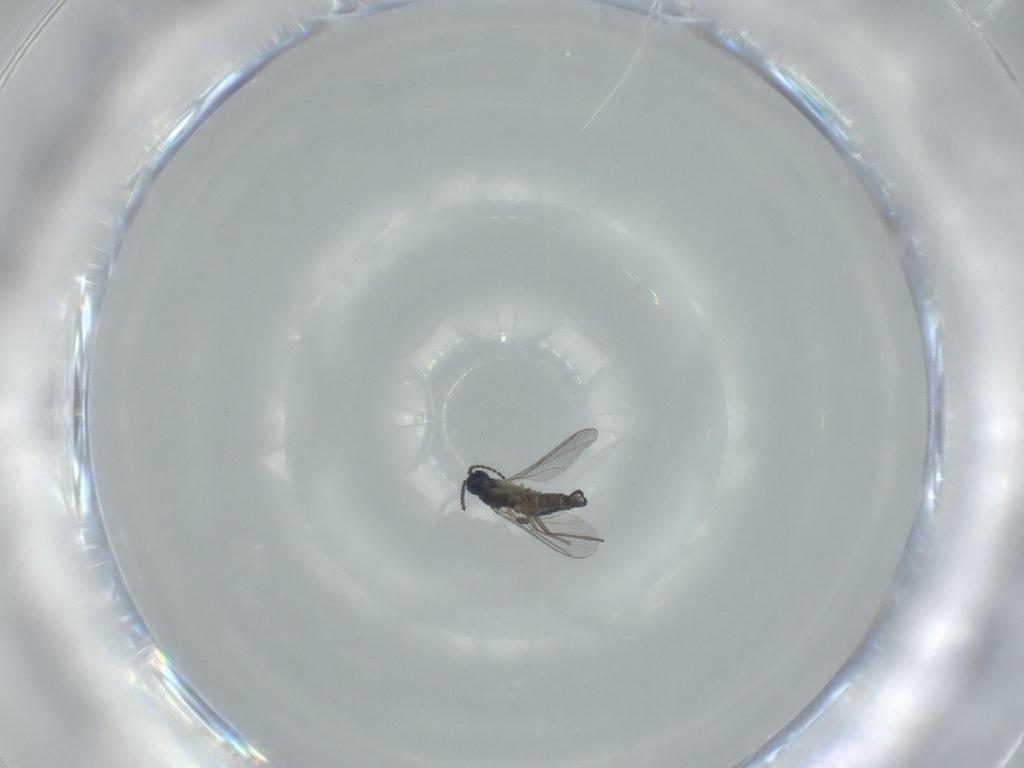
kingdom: Animalia
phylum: Arthropoda
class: Insecta
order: Diptera
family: Sciaridae
